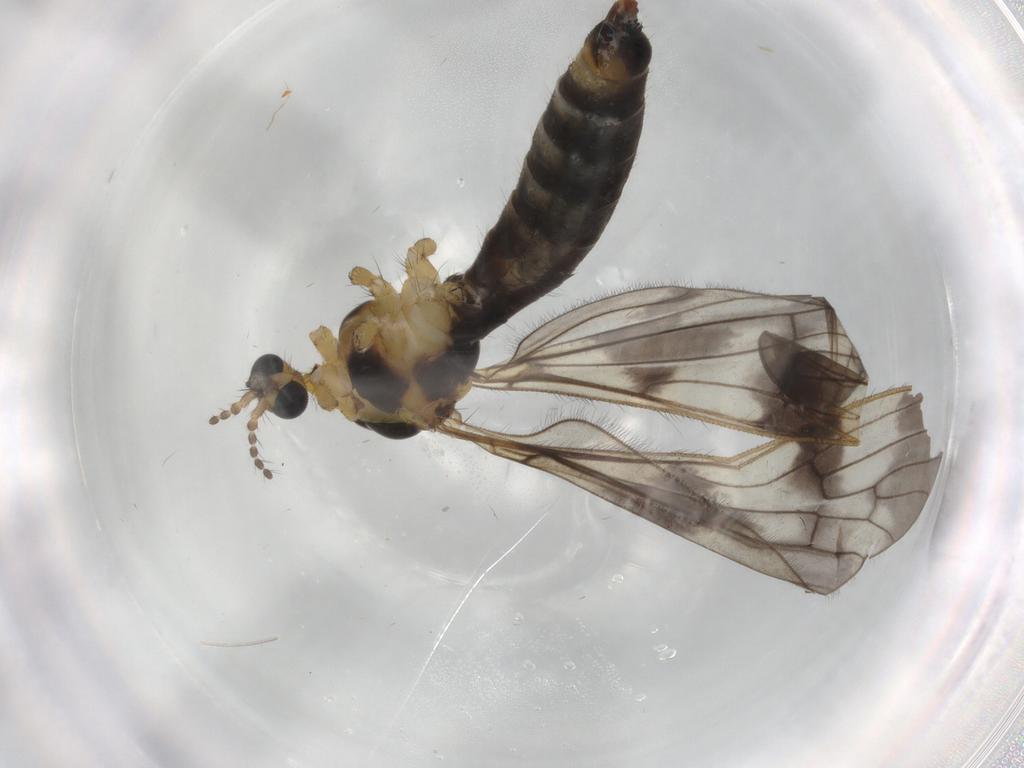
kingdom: Animalia
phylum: Arthropoda
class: Insecta
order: Diptera
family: Limoniidae
